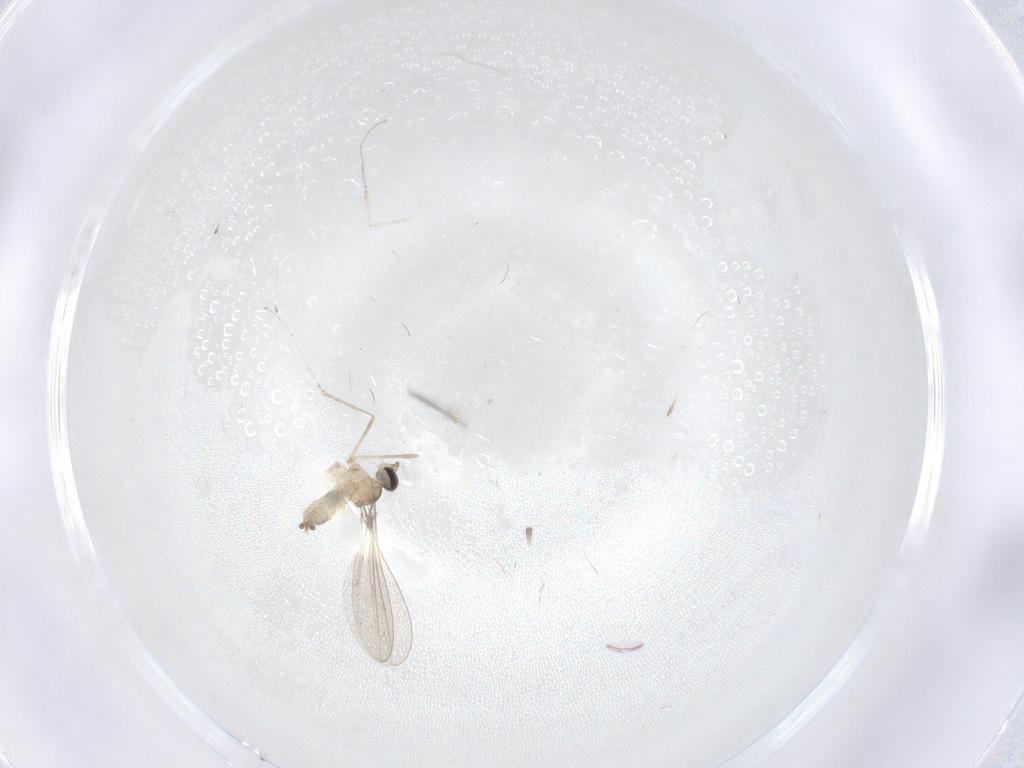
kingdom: Animalia
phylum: Arthropoda
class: Insecta
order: Diptera
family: Cecidomyiidae
